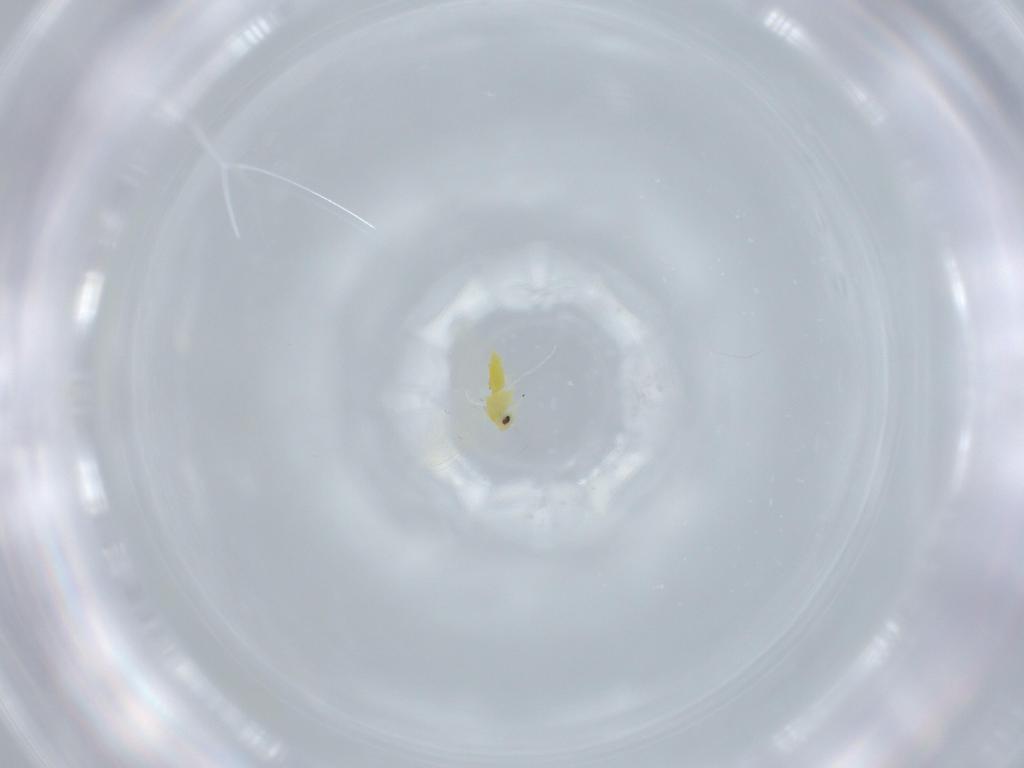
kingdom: Animalia
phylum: Arthropoda
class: Insecta
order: Hemiptera
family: Aleyrodidae
